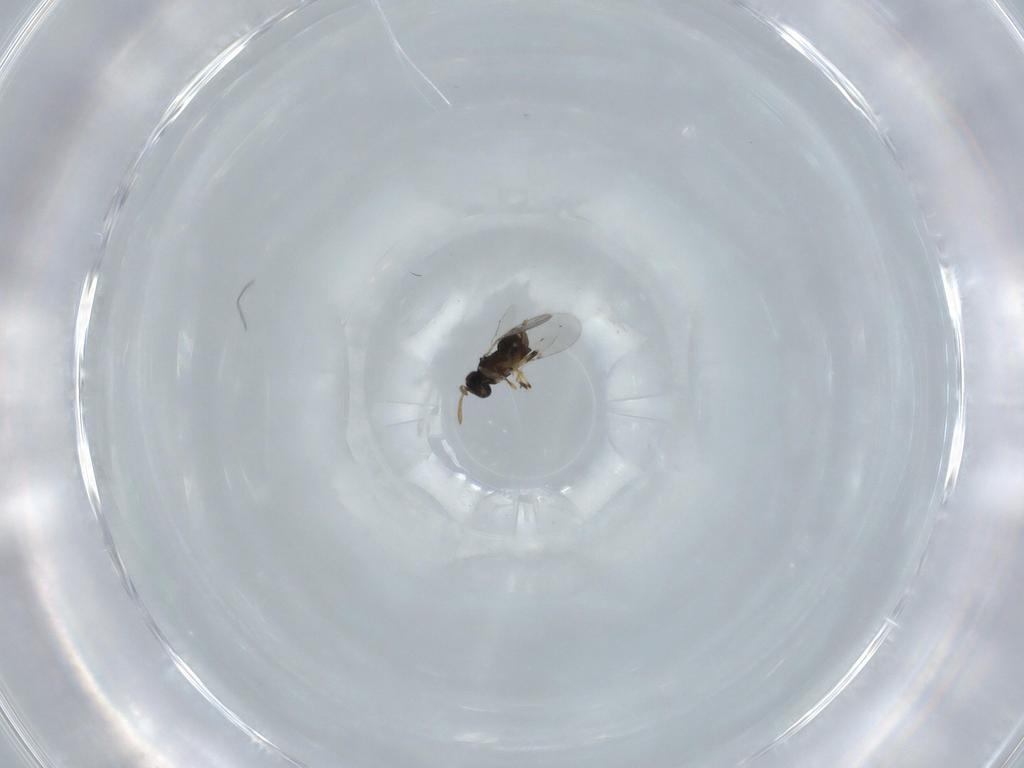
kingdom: Animalia
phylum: Arthropoda
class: Insecta
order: Hymenoptera
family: Encyrtidae
